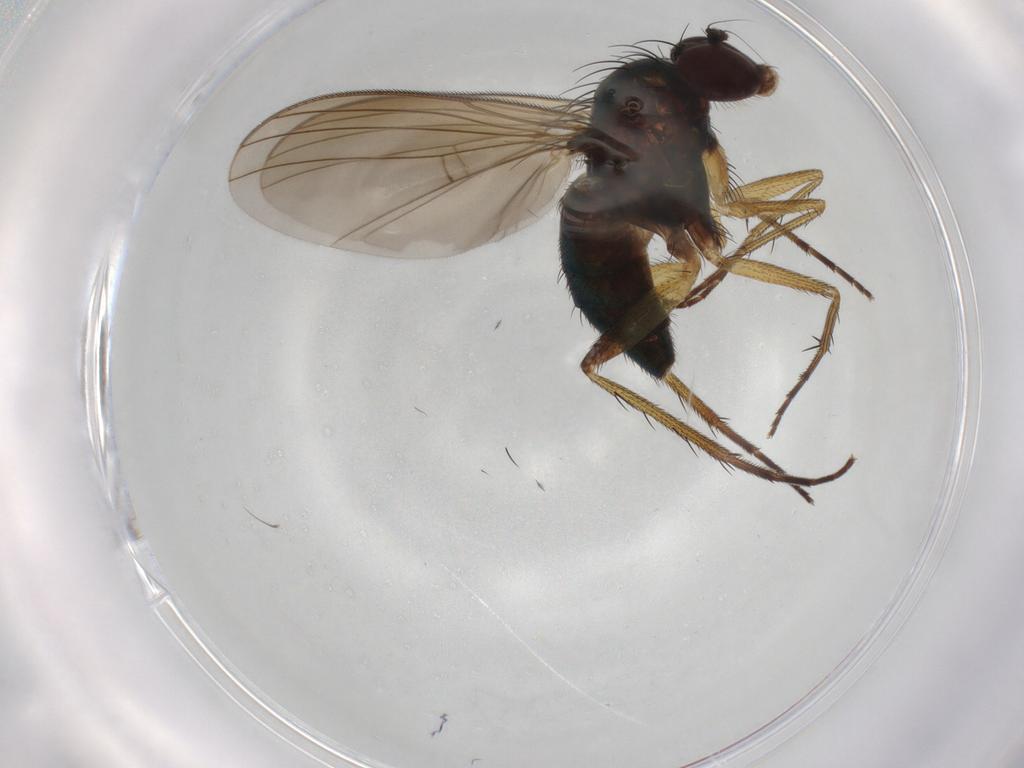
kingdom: Animalia
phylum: Arthropoda
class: Insecta
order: Diptera
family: Dolichopodidae
